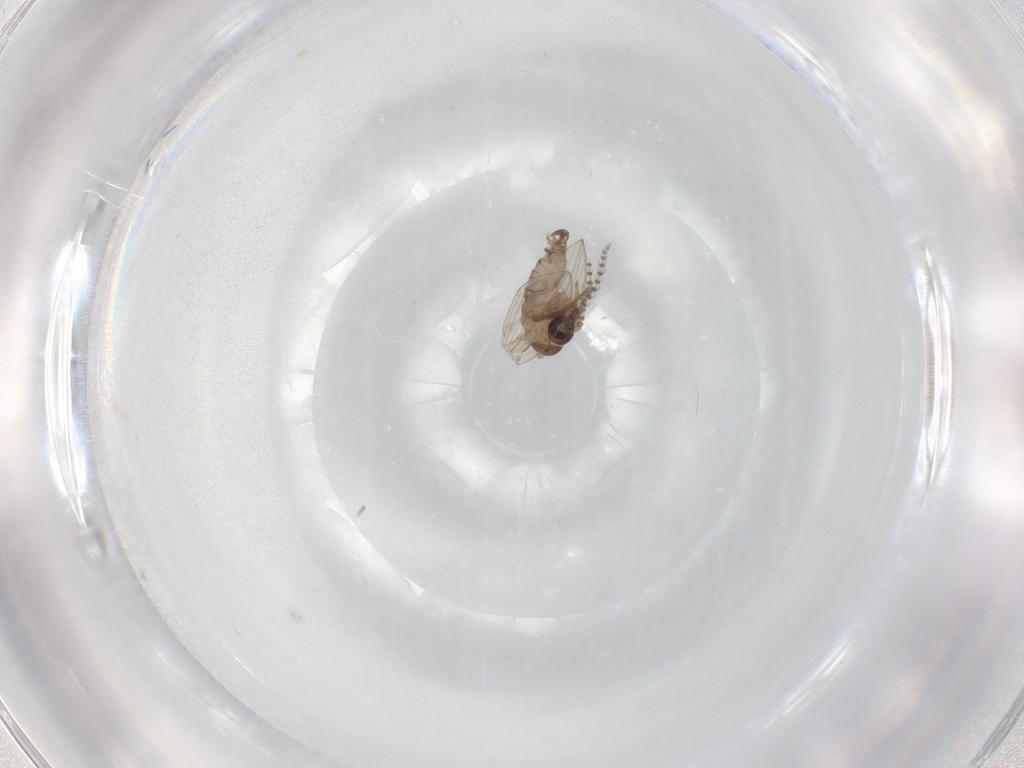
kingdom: Animalia
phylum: Arthropoda
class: Insecta
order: Diptera
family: Psychodidae
